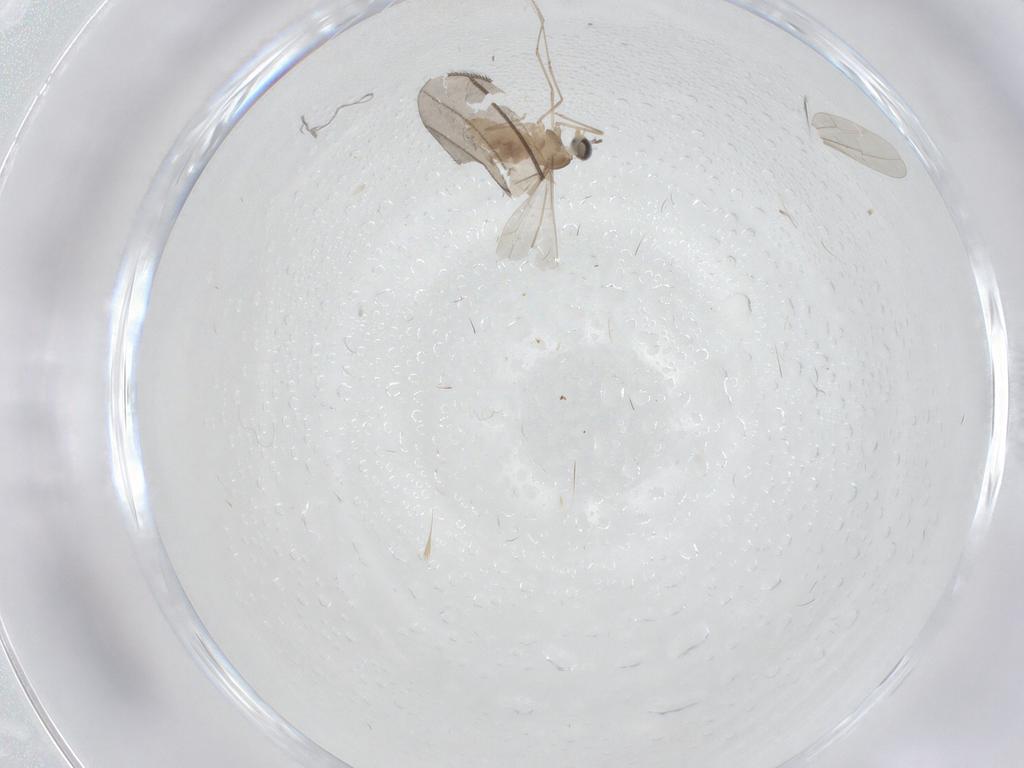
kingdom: Animalia
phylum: Arthropoda
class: Insecta
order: Diptera
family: Cecidomyiidae
